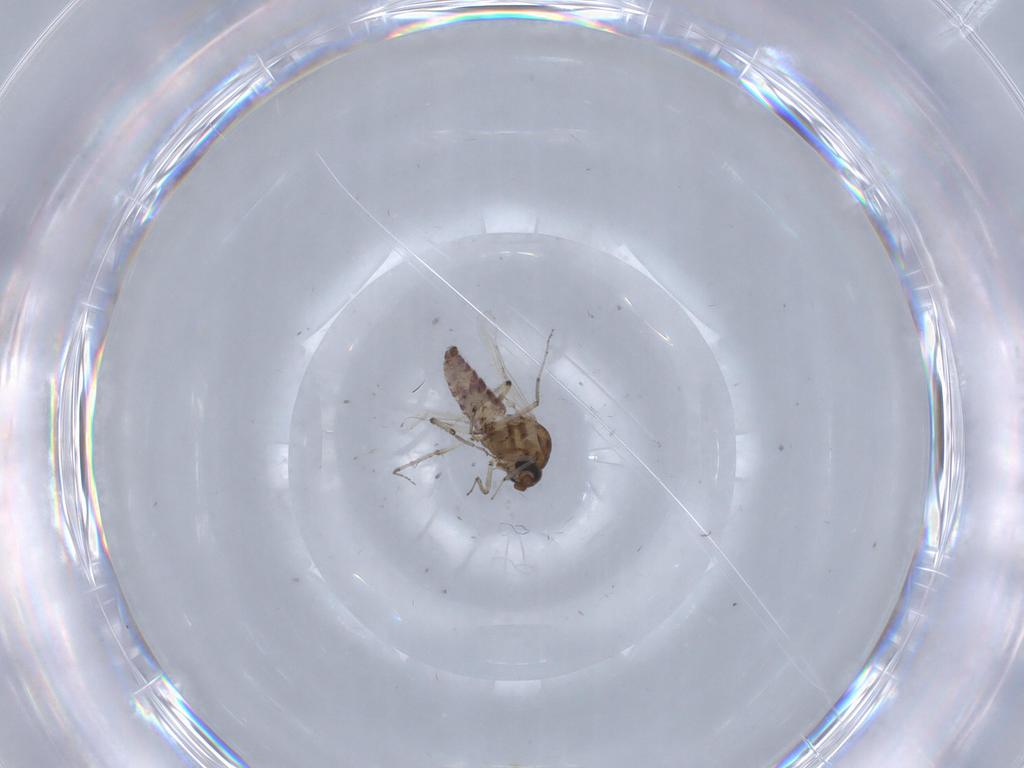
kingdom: Animalia
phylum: Arthropoda
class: Insecta
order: Diptera
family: Ceratopogonidae
